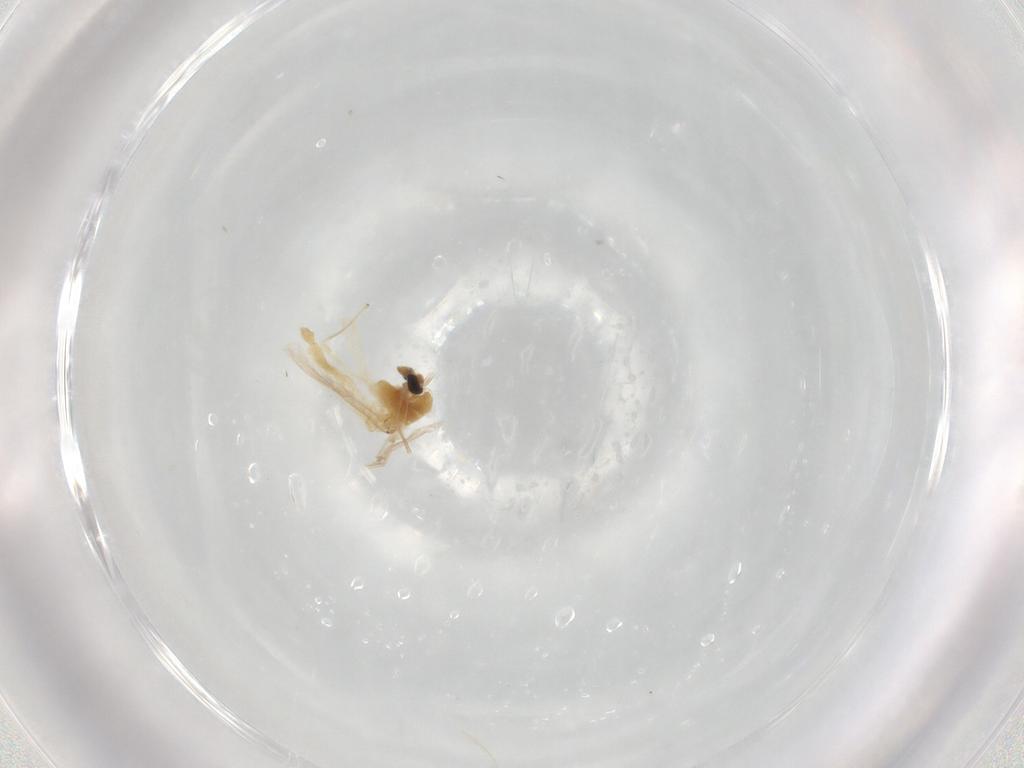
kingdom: Animalia
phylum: Arthropoda
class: Insecta
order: Diptera
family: Chironomidae
